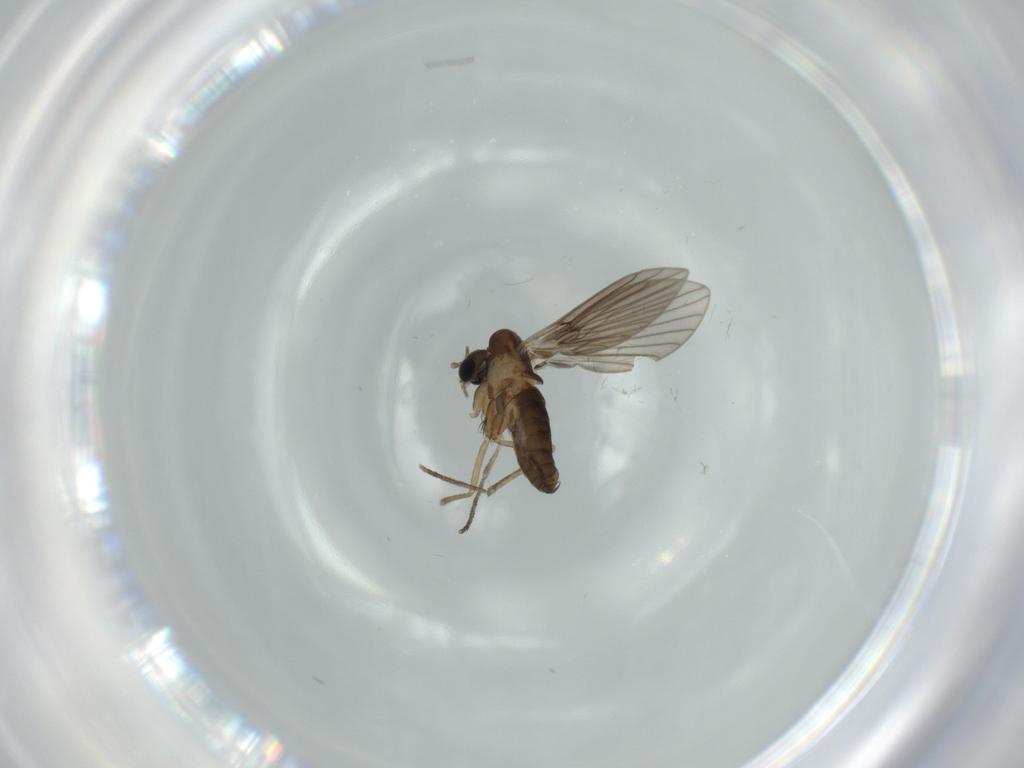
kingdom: Animalia
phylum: Arthropoda
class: Insecta
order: Diptera
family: Psychodidae
